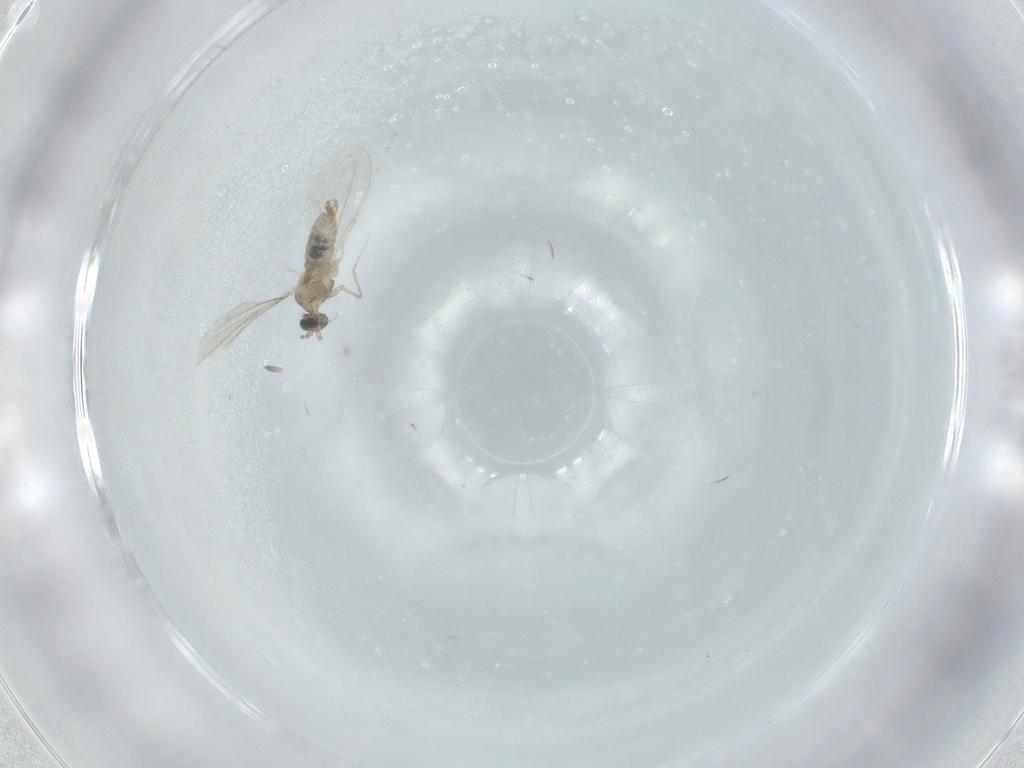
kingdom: Animalia
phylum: Arthropoda
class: Insecta
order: Diptera
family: Cecidomyiidae
